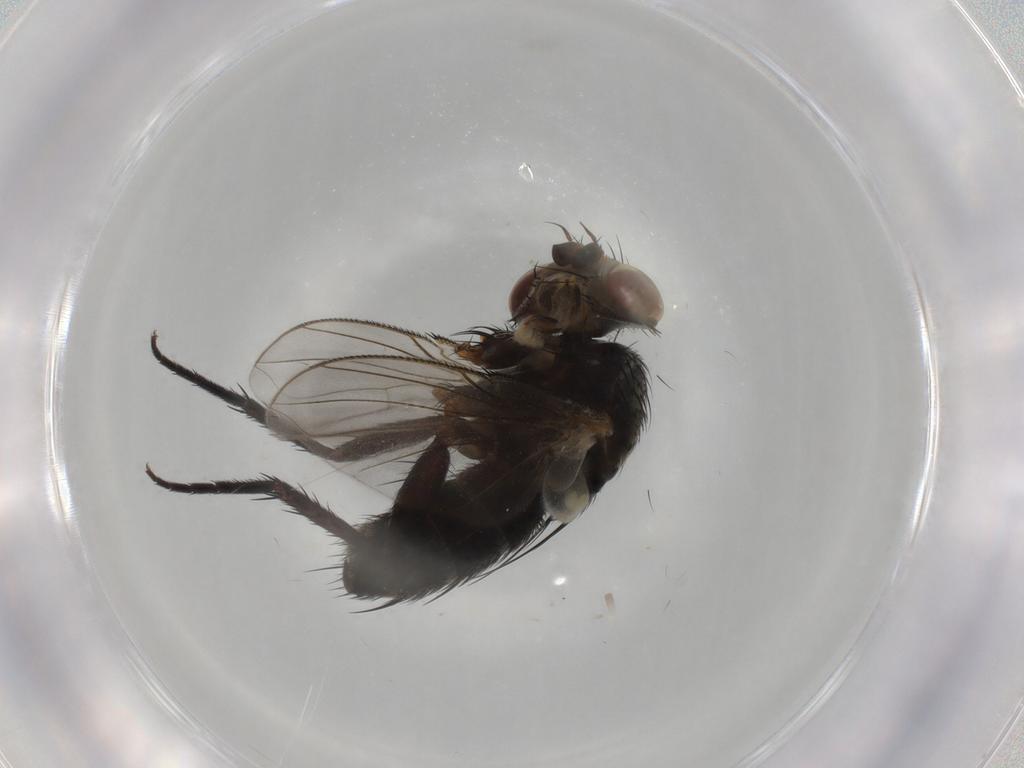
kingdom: Animalia
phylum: Arthropoda
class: Insecta
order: Diptera
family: Tachinidae
